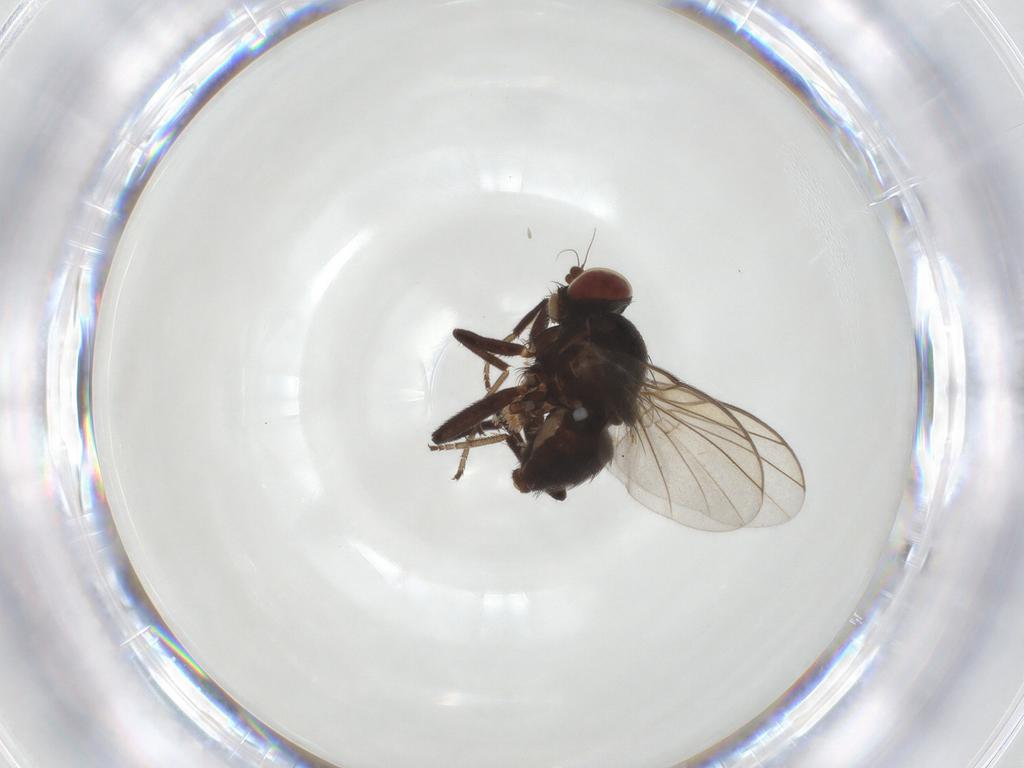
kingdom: Animalia
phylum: Arthropoda
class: Insecta
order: Diptera
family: Agromyzidae
